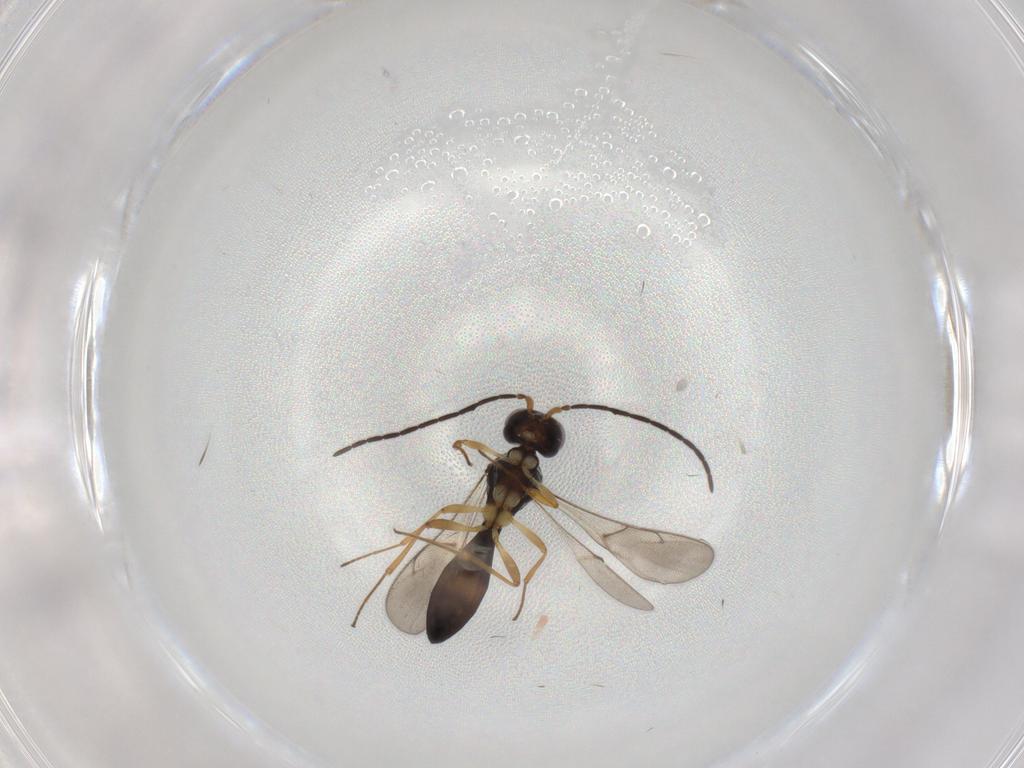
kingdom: Animalia
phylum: Arthropoda
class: Insecta
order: Hymenoptera
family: Scelionidae
